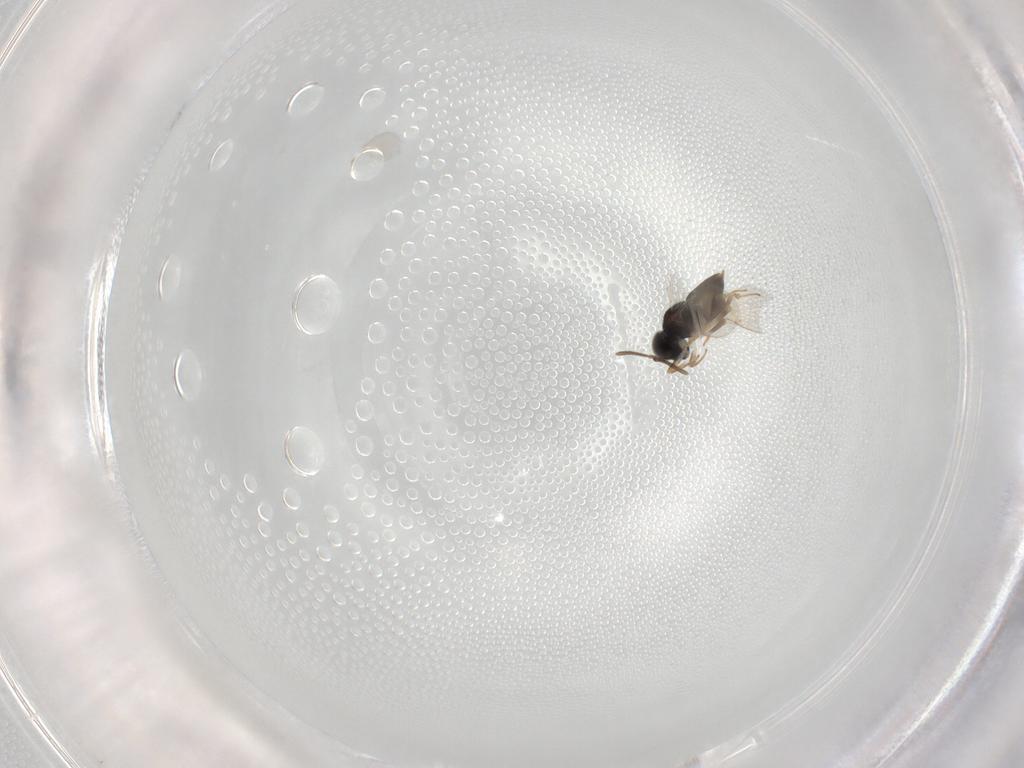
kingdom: Animalia
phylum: Arthropoda
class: Insecta
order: Hymenoptera
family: Encyrtidae
